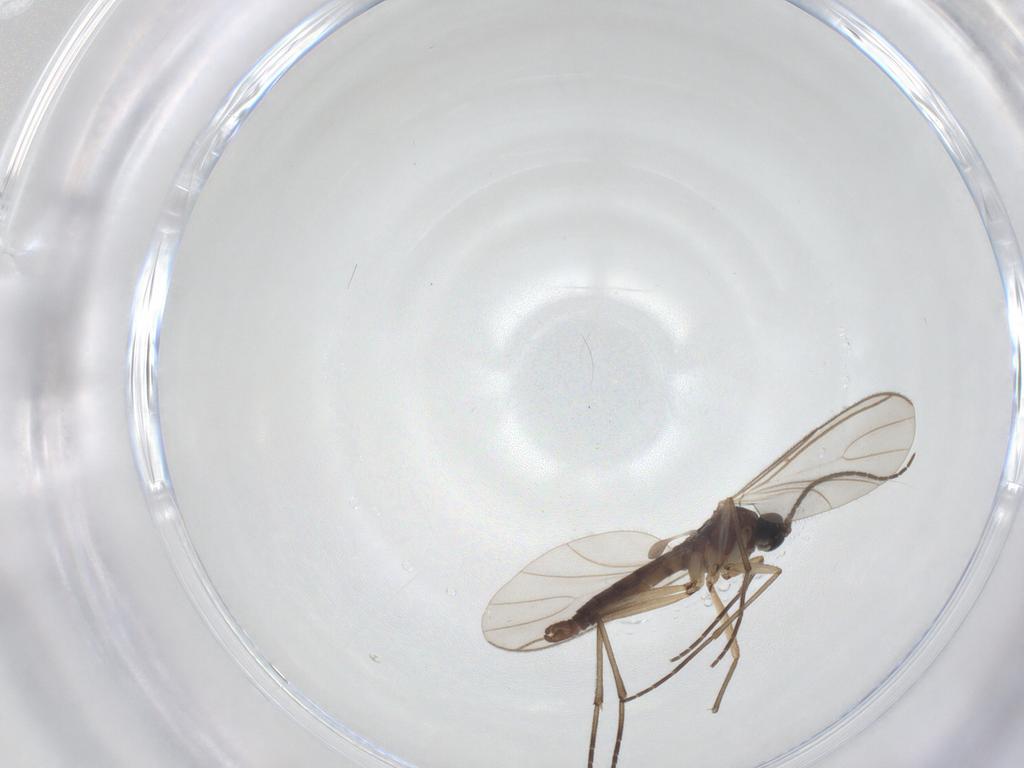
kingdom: Animalia
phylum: Arthropoda
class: Insecta
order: Diptera
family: Sciaridae
